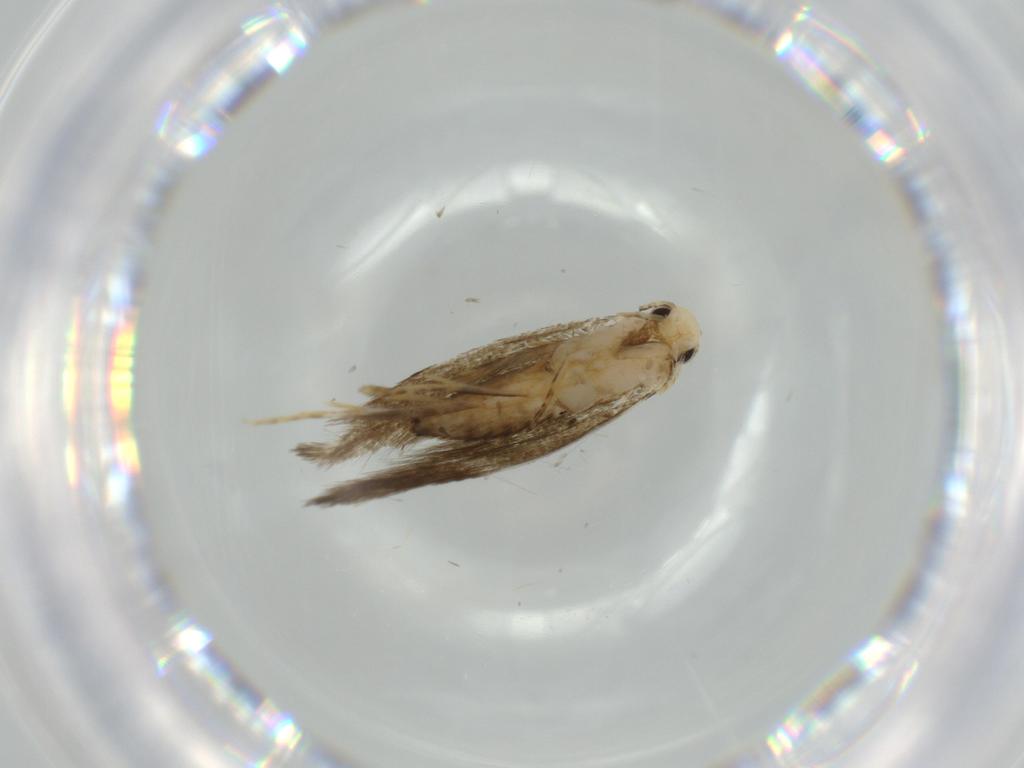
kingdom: Animalia
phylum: Arthropoda
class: Insecta
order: Lepidoptera
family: Tineidae
